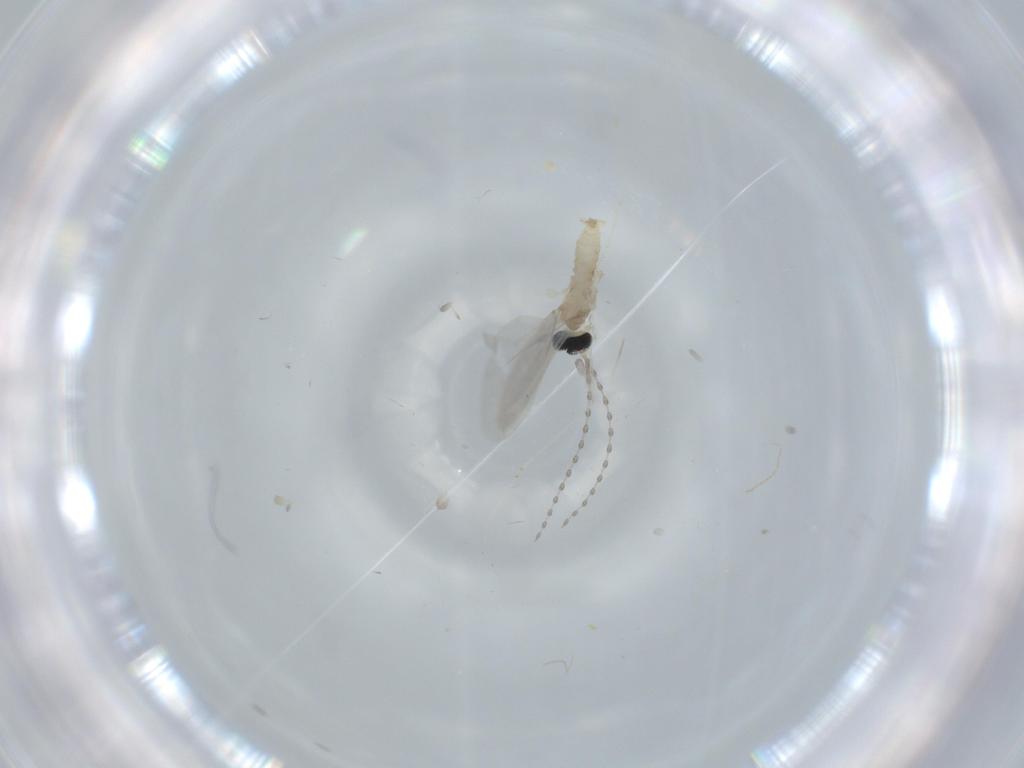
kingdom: Animalia
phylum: Arthropoda
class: Insecta
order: Diptera
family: Cecidomyiidae
